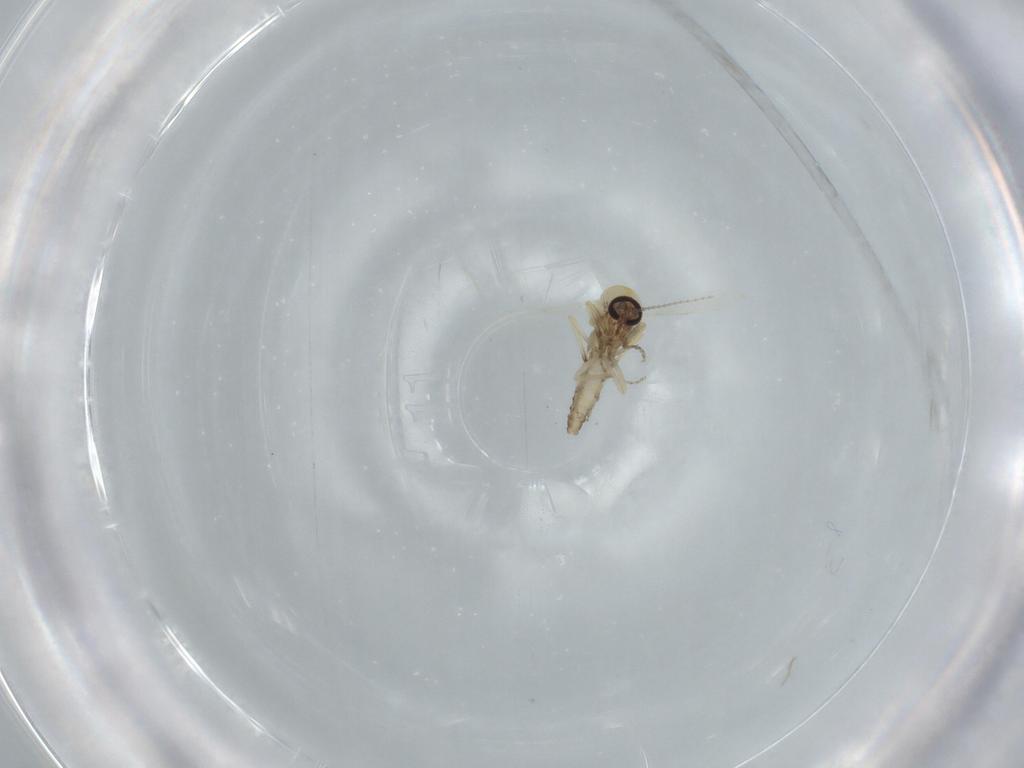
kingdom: Animalia
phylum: Arthropoda
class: Insecta
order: Diptera
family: Ceratopogonidae
